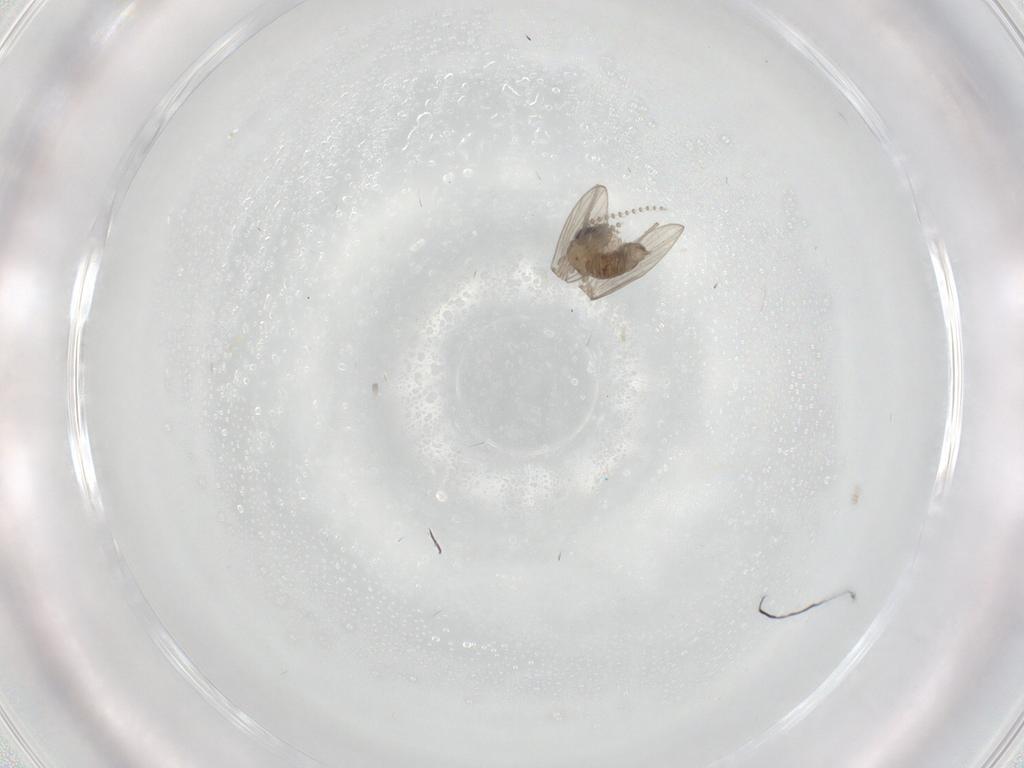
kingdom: Animalia
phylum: Arthropoda
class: Insecta
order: Diptera
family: Psychodidae
